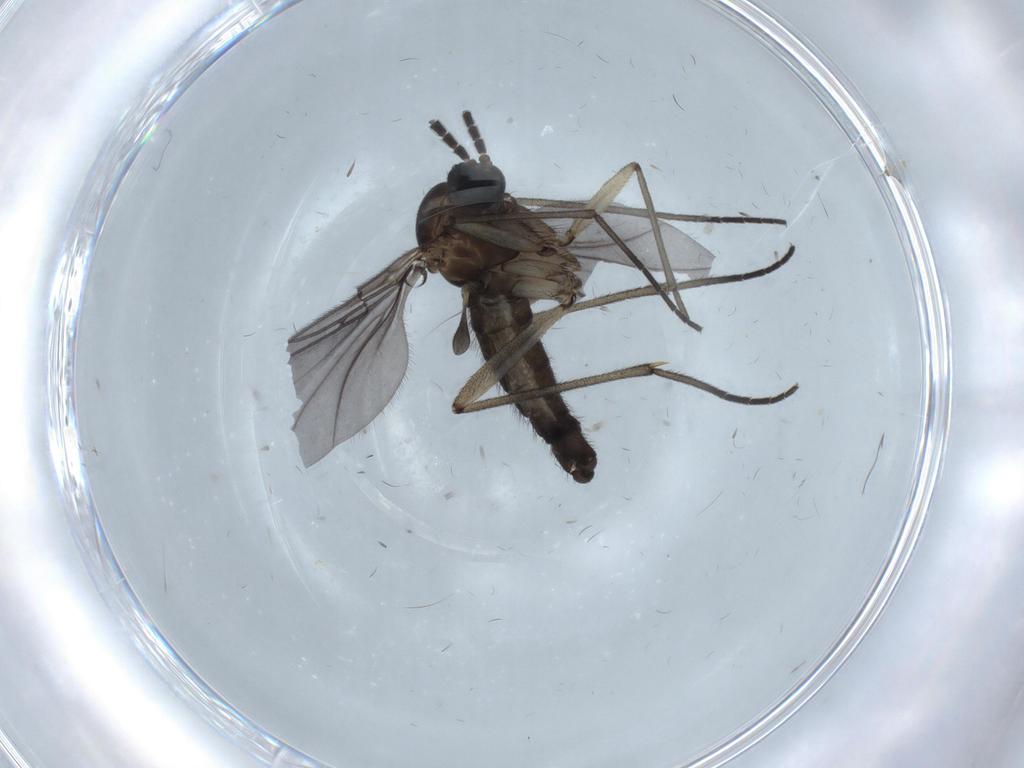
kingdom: Animalia
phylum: Arthropoda
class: Insecta
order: Diptera
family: Sciaridae
